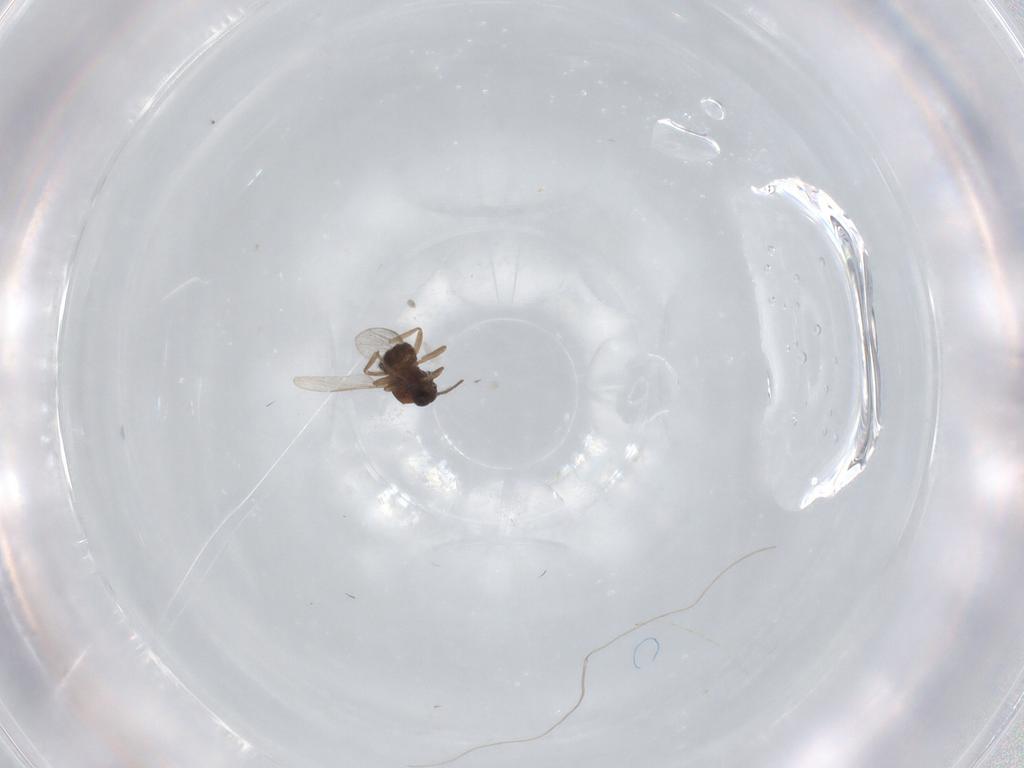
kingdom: Animalia
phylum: Arthropoda
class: Insecta
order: Diptera
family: Ceratopogonidae
